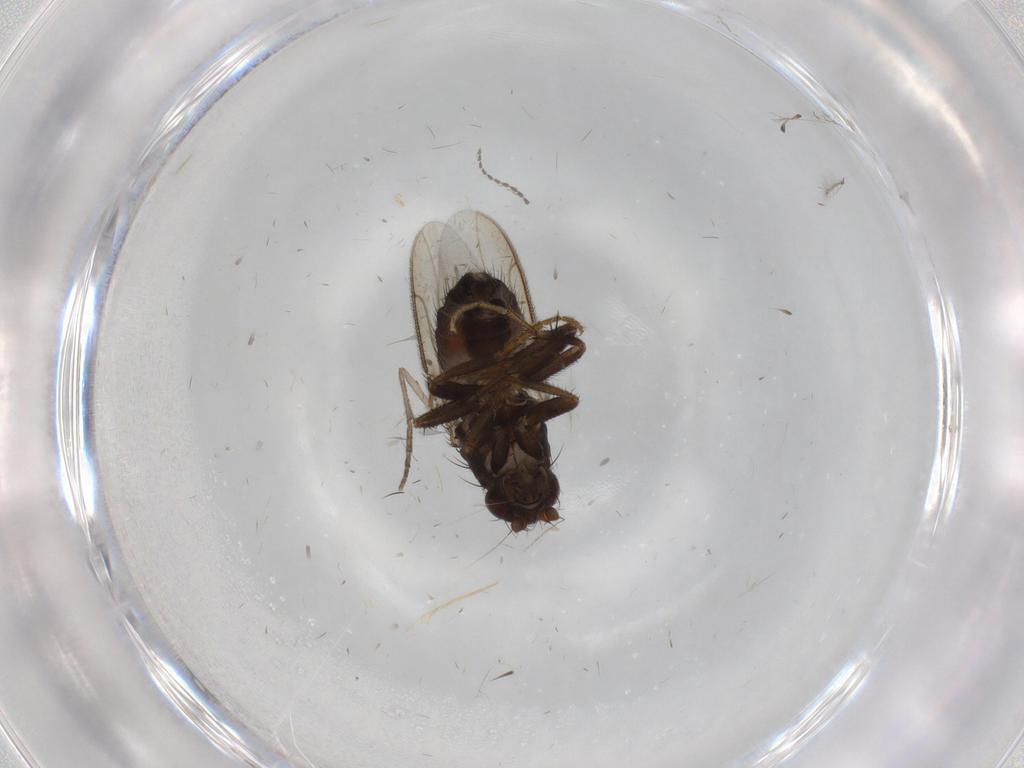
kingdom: Animalia
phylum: Arthropoda
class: Insecta
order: Diptera
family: Sphaeroceridae
